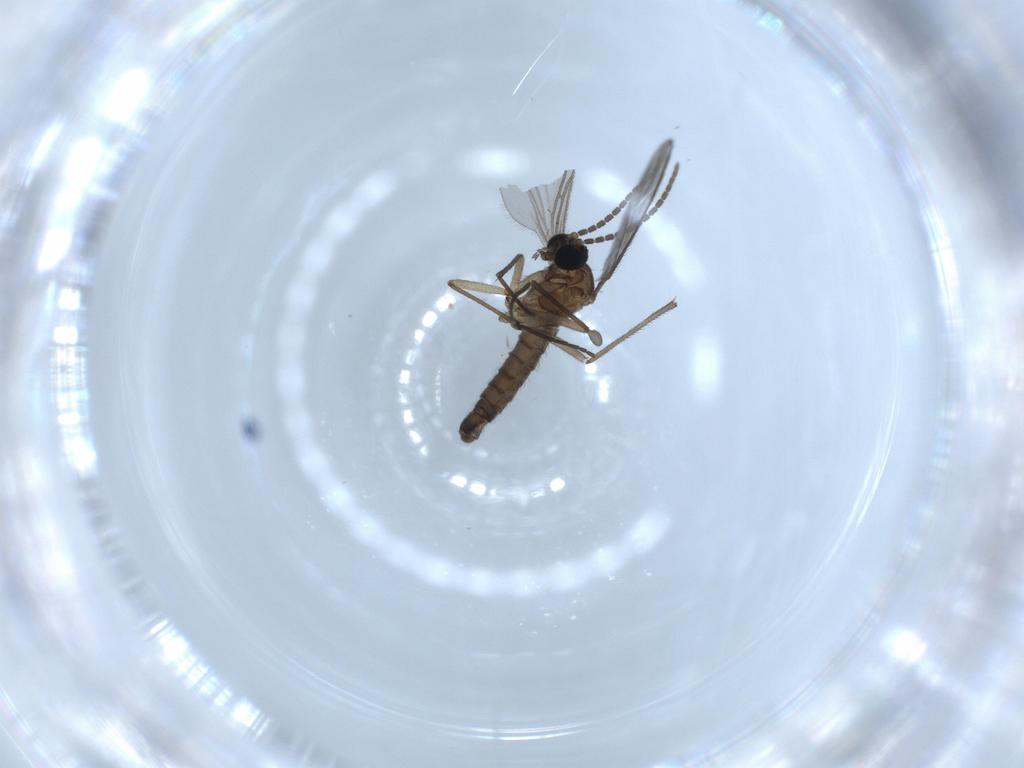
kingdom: Animalia
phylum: Arthropoda
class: Insecta
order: Diptera
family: Sciaridae
